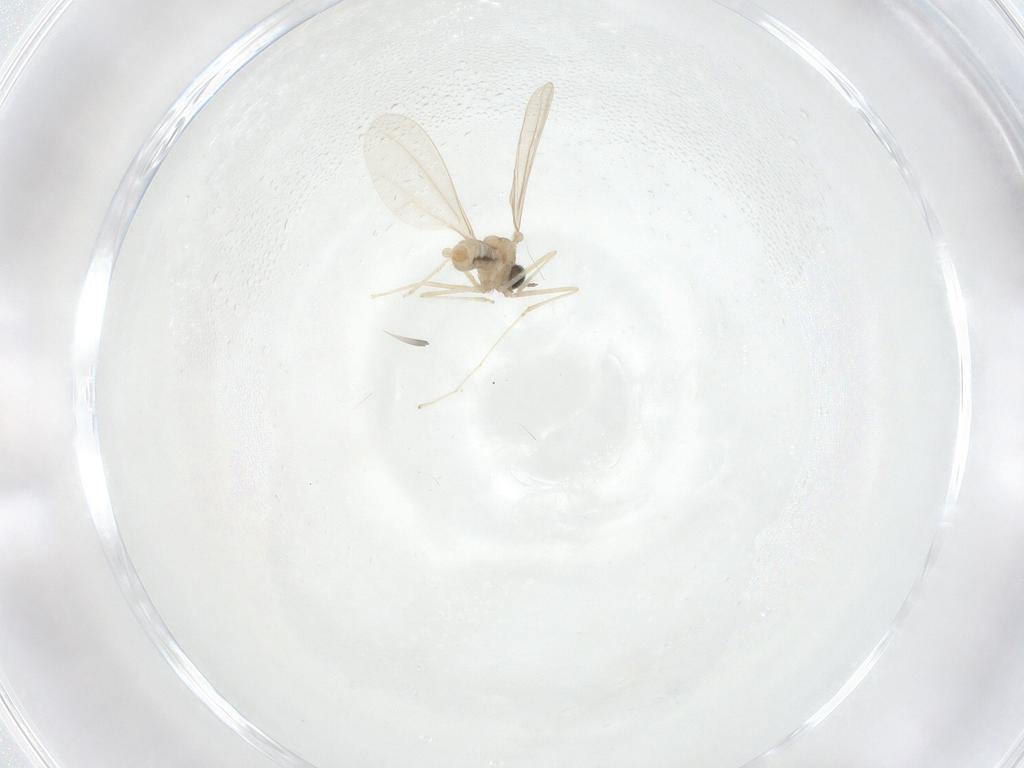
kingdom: Animalia
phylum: Arthropoda
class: Insecta
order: Diptera
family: Cecidomyiidae
